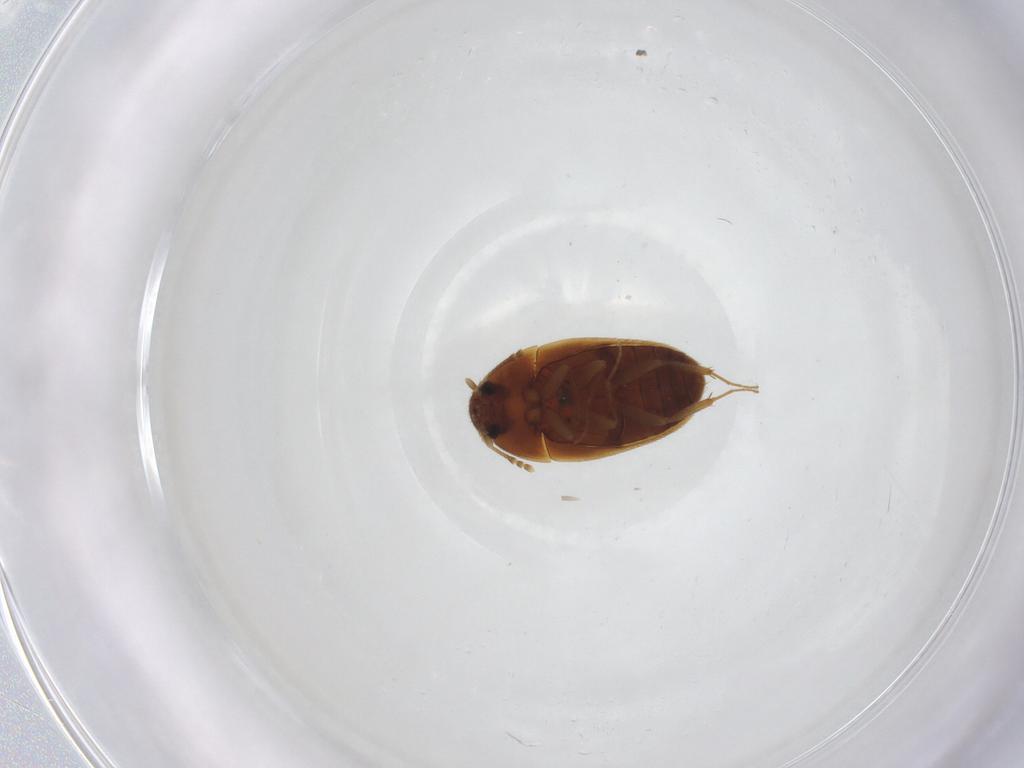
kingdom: Animalia
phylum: Arthropoda
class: Insecta
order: Coleoptera
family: Mycetophagidae
